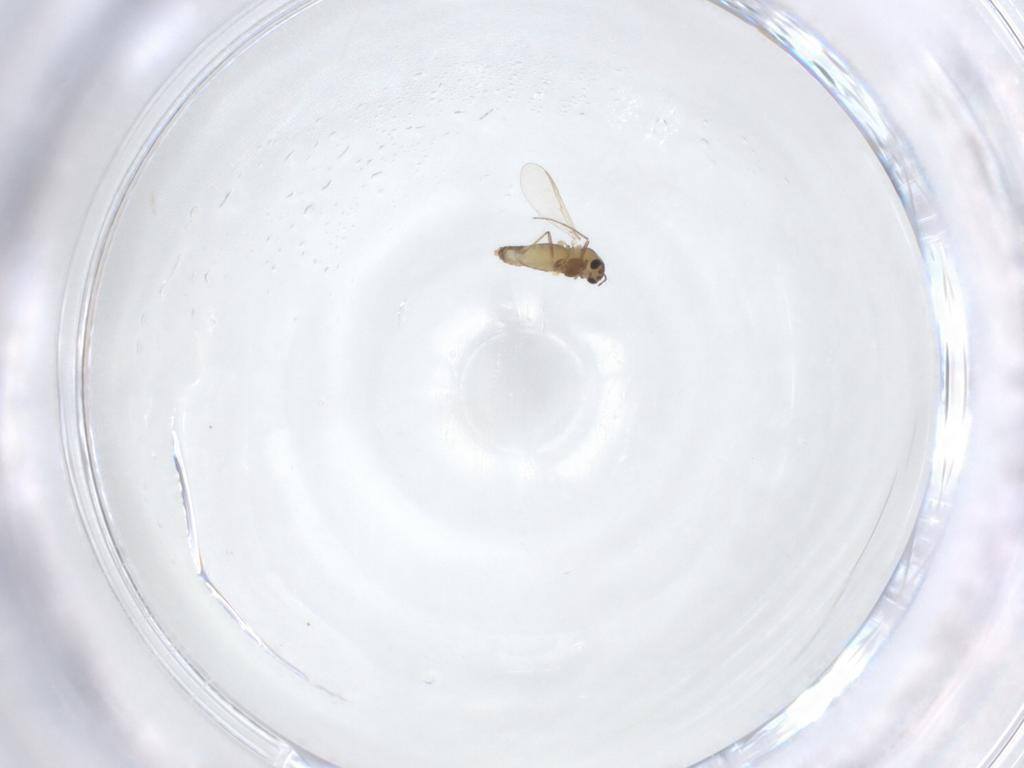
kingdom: Animalia
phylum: Arthropoda
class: Insecta
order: Diptera
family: Chironomidae
